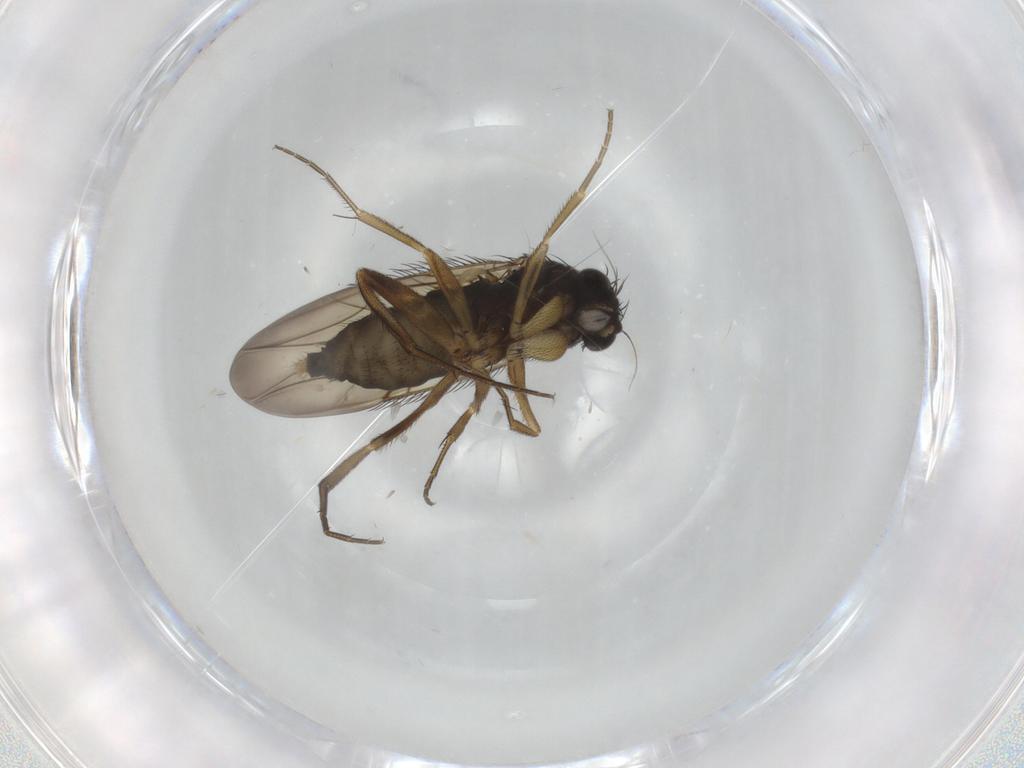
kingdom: Animalia
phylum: Arthropoda
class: Insecta
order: Diptera
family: Phoridae
